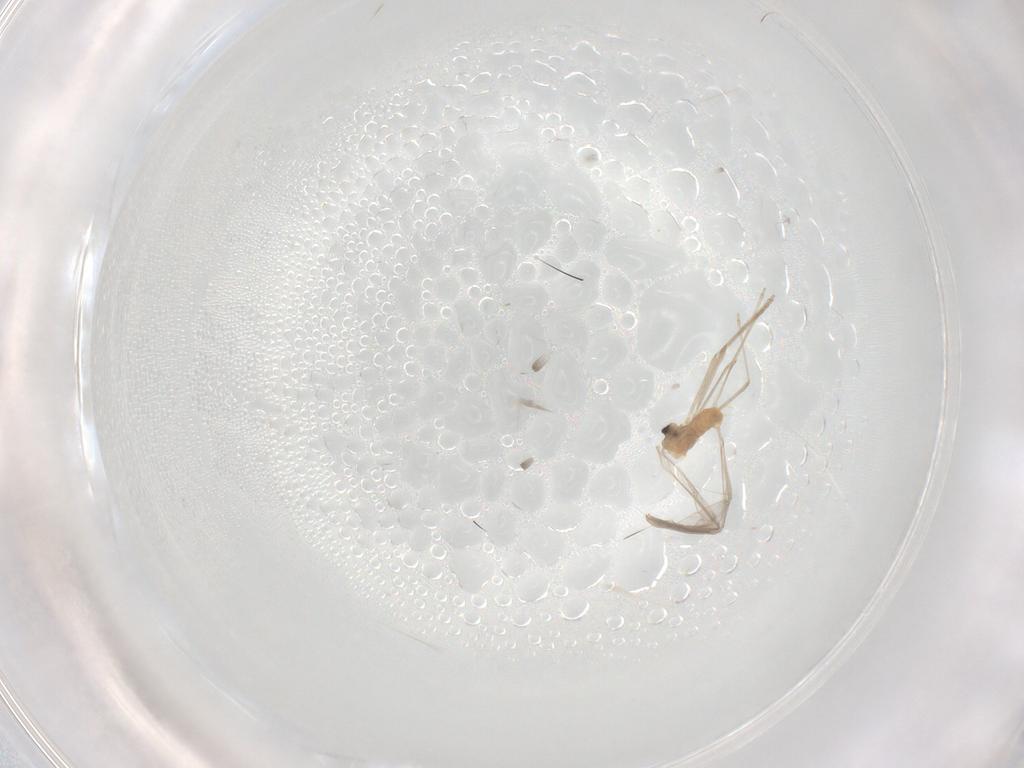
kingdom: Animalia
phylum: Arthropoda
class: Insecta
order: Diptera
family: Cecidomyiidae
